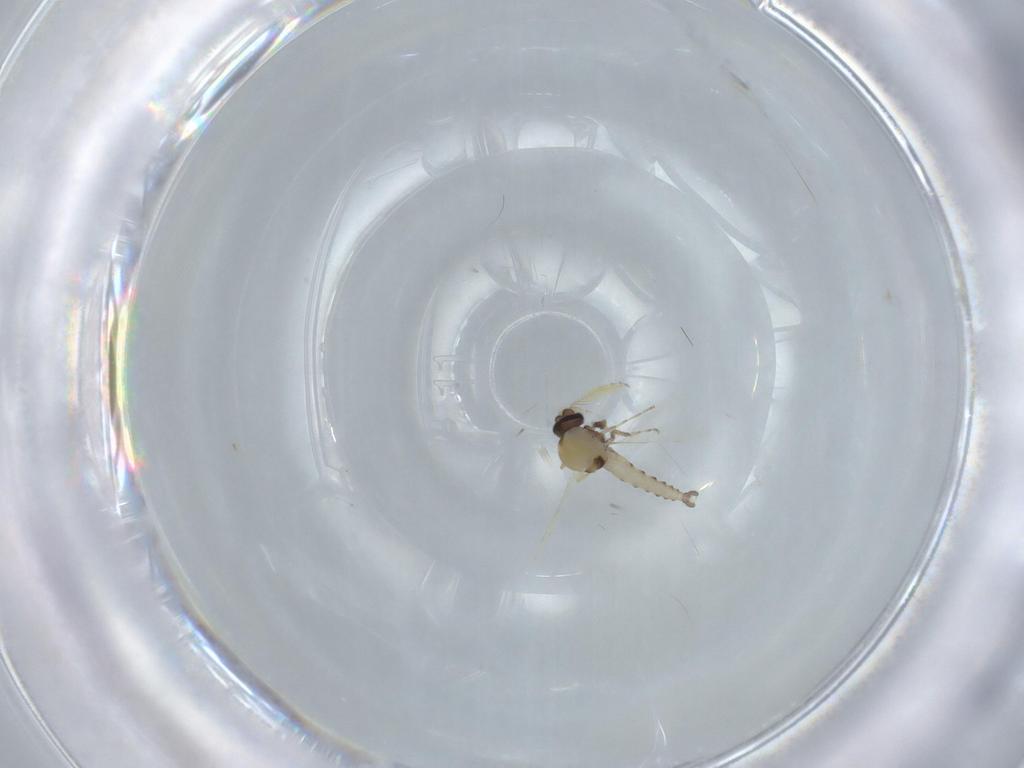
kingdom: Animalia
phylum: Arthropoda
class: Insecta
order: Diptera
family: Ceratopogonidae
